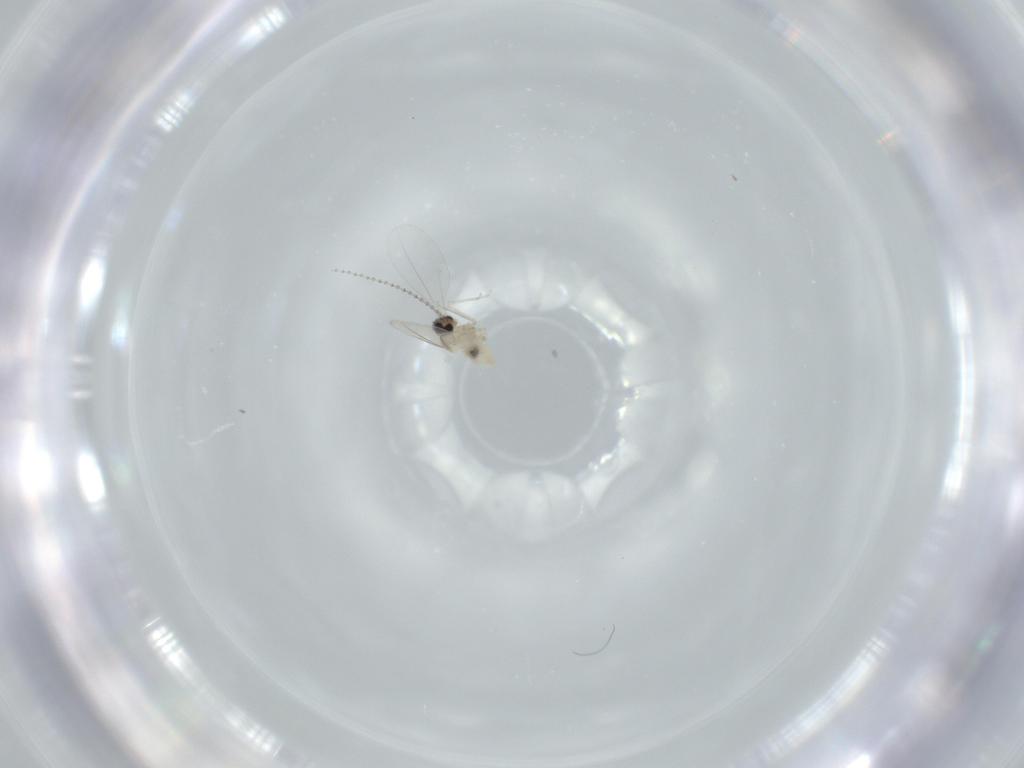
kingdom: Animalia
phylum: Arthropoda
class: Insecta
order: Diptera
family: Cecidomyiidae
